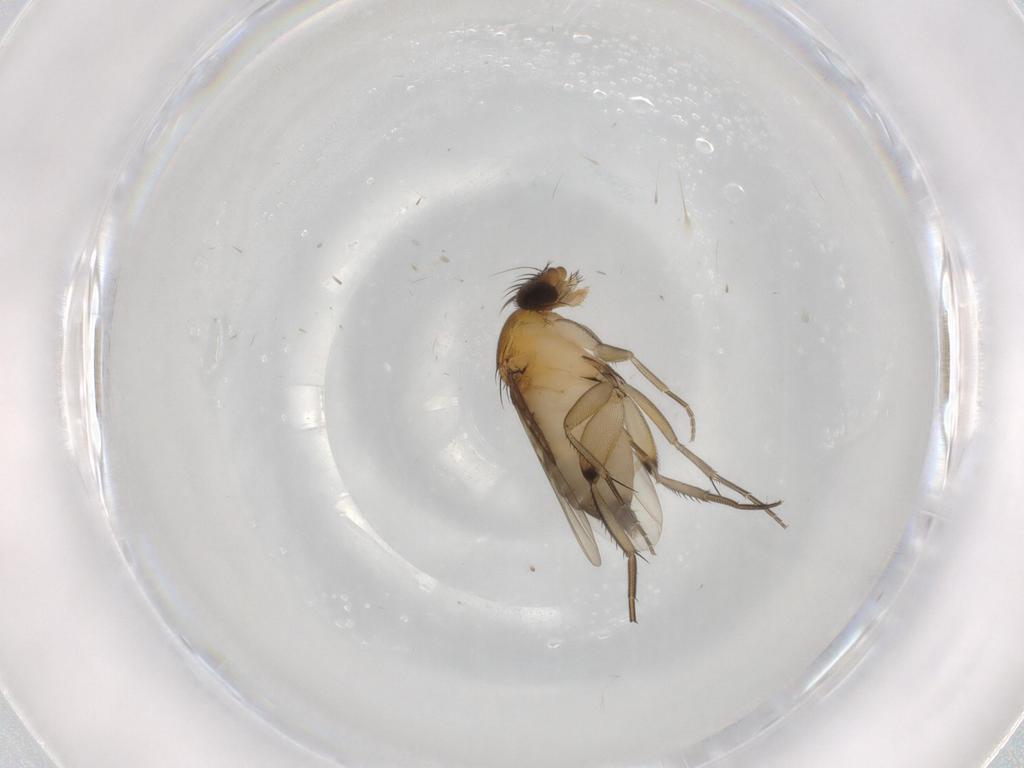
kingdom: Animalia
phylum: Arthropoda
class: Insecta
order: Diptera
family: Phoridae
